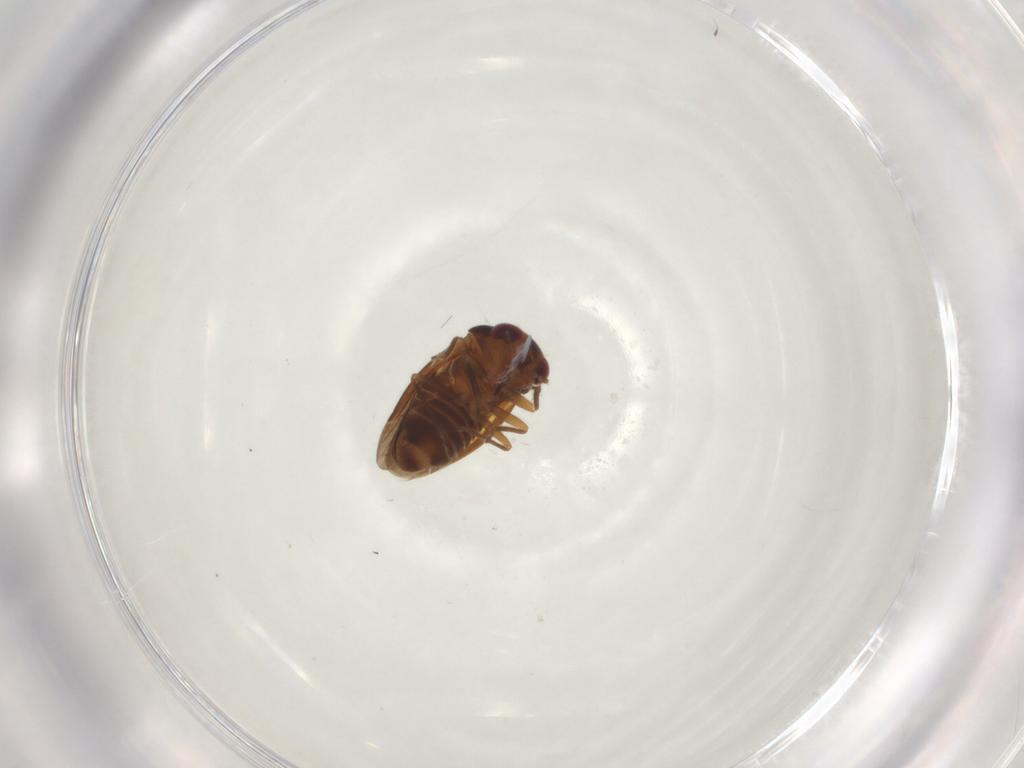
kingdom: Animalia
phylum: Arthropoda
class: Insecta
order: Hemiptera
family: Schizopteridae
